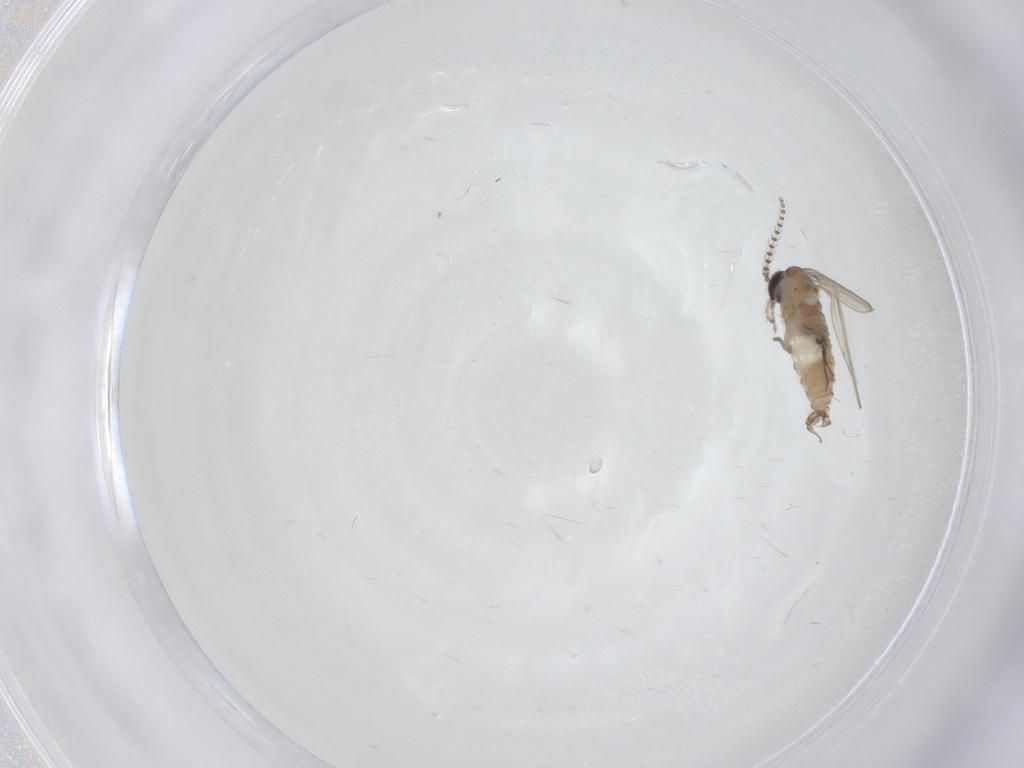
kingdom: Animalia
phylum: Arthropoda
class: Insecta
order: Diptera
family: Psychodidae
